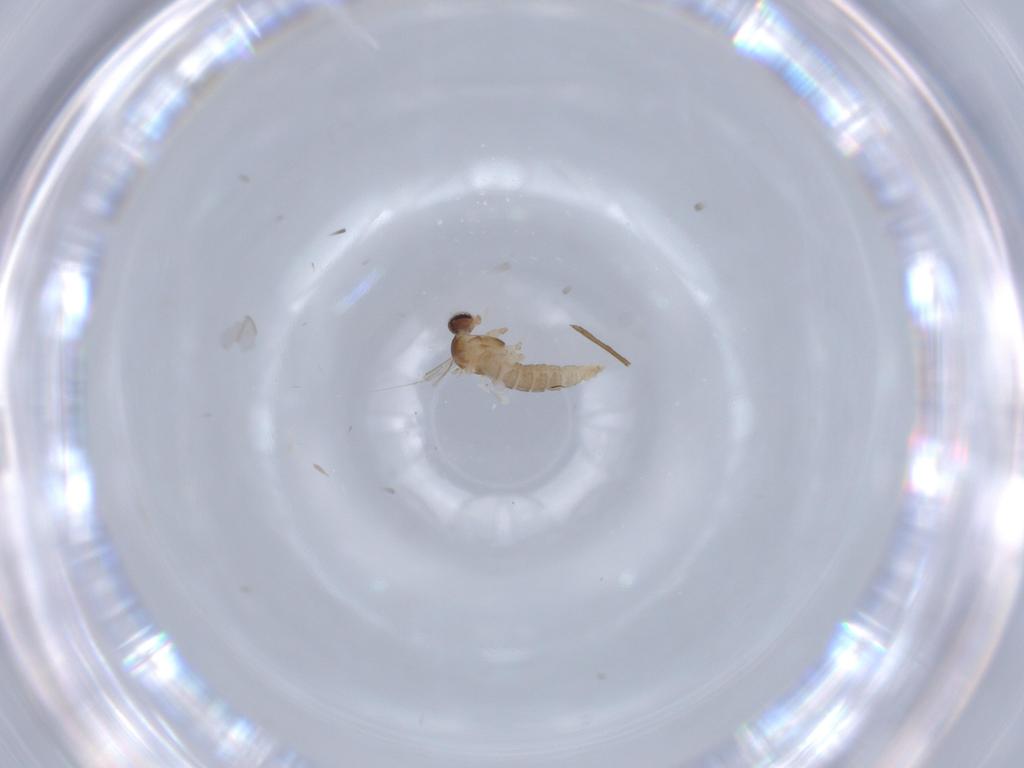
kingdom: Animalia
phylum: Arthropoda
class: Insecta
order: Diptera
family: Cecidomyiidae
